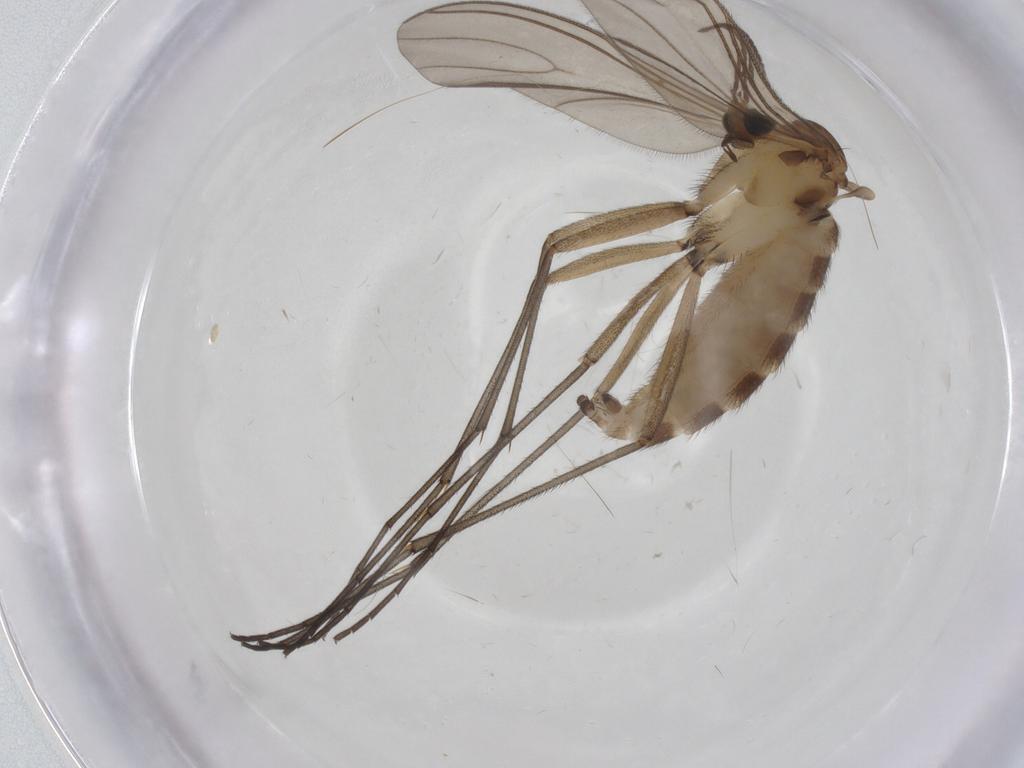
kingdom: Animalia
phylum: Arthropoda
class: Insecta
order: Diptera
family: Sciaridae
